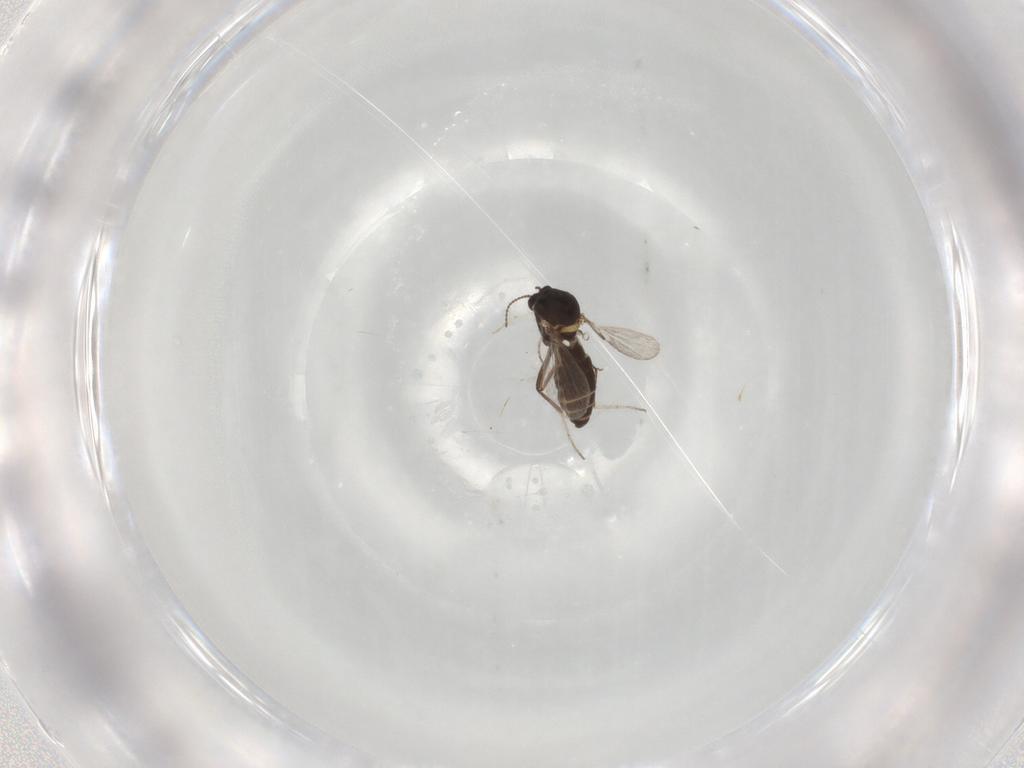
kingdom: Animalia
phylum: Arthropoda
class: Insecta
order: Diptera
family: Ceratopogonidae
